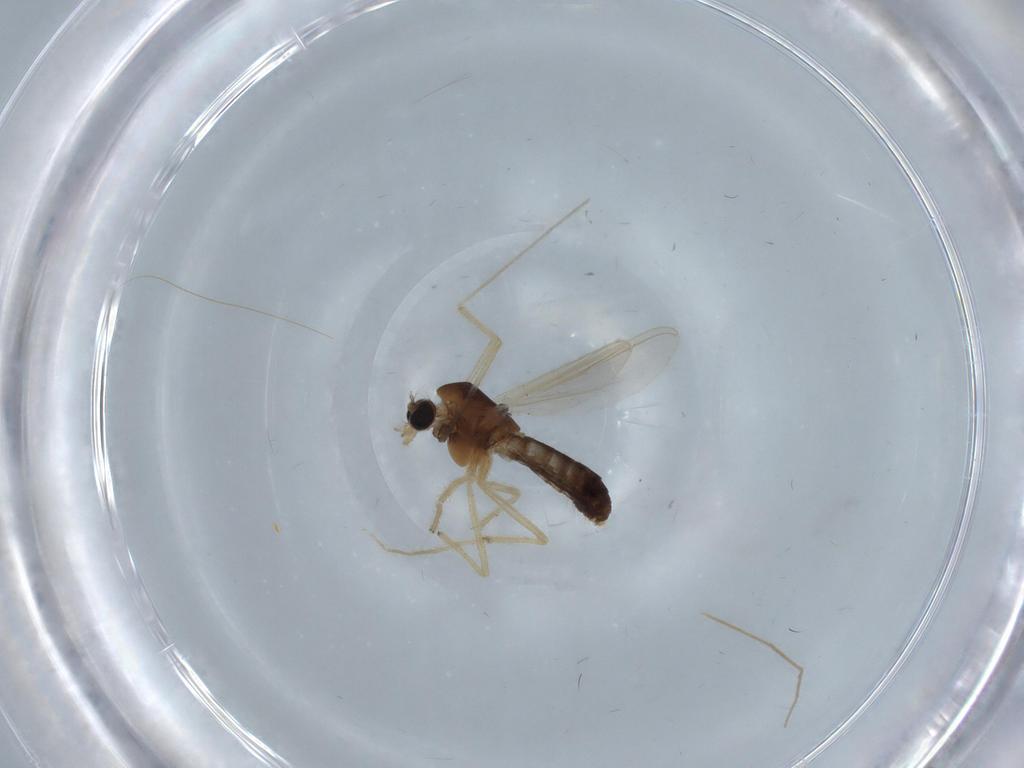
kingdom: Animalia
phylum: Arthropoda
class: Insecta
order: Diptera
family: Chironomidae
